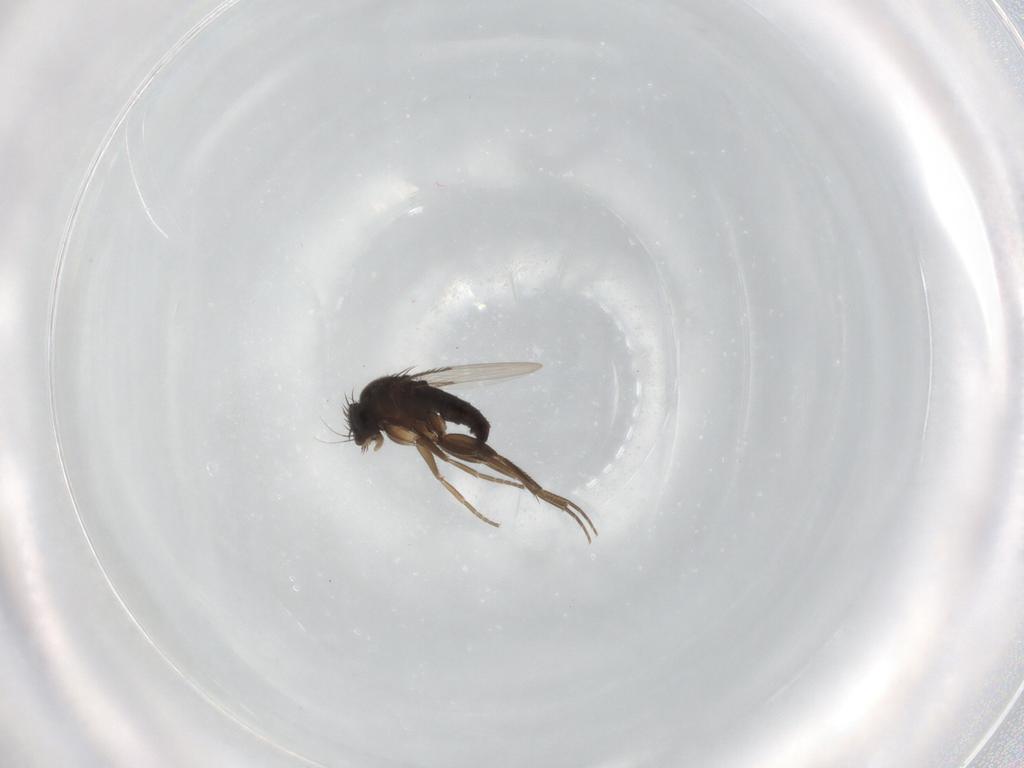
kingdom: Animalia
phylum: Arthropoda
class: Insecta
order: Diptera
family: Phoridae
